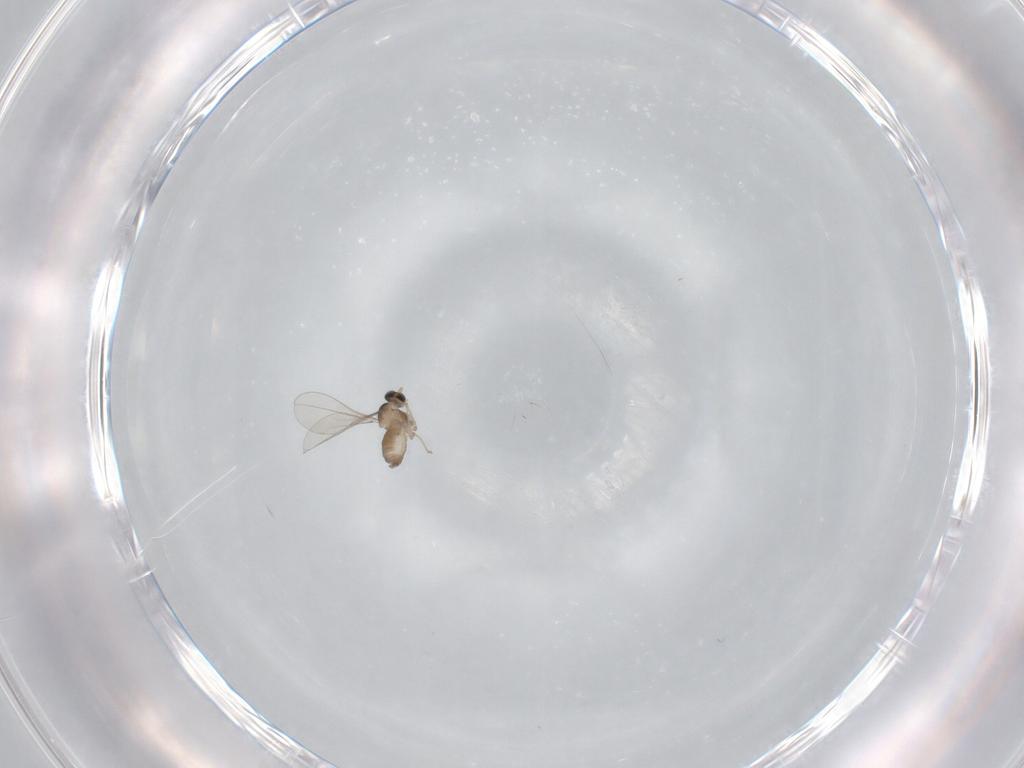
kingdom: Animalia
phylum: Arthropoda
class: Insecta
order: Diptera
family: Cecidomyiidae
